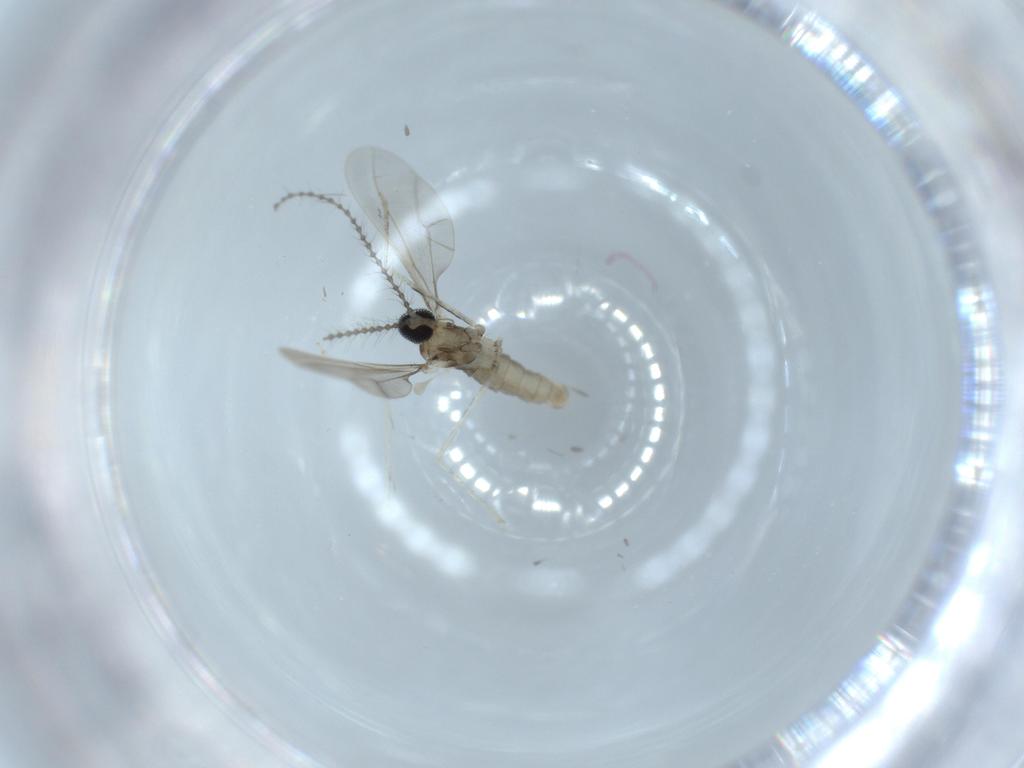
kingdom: Animalia
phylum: Arthropoda
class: Insecta
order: Diptera
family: Cecidomyiidae
